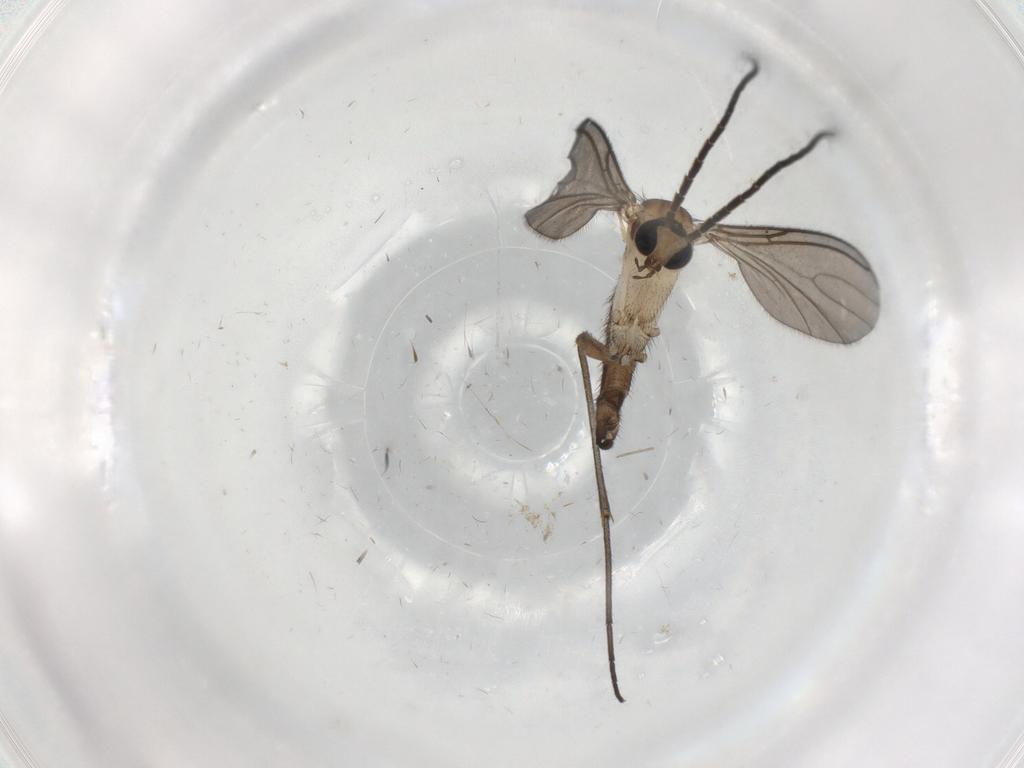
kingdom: Animalia
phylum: Arthropoda
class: Insecta
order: Diptera
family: Sciaridae
